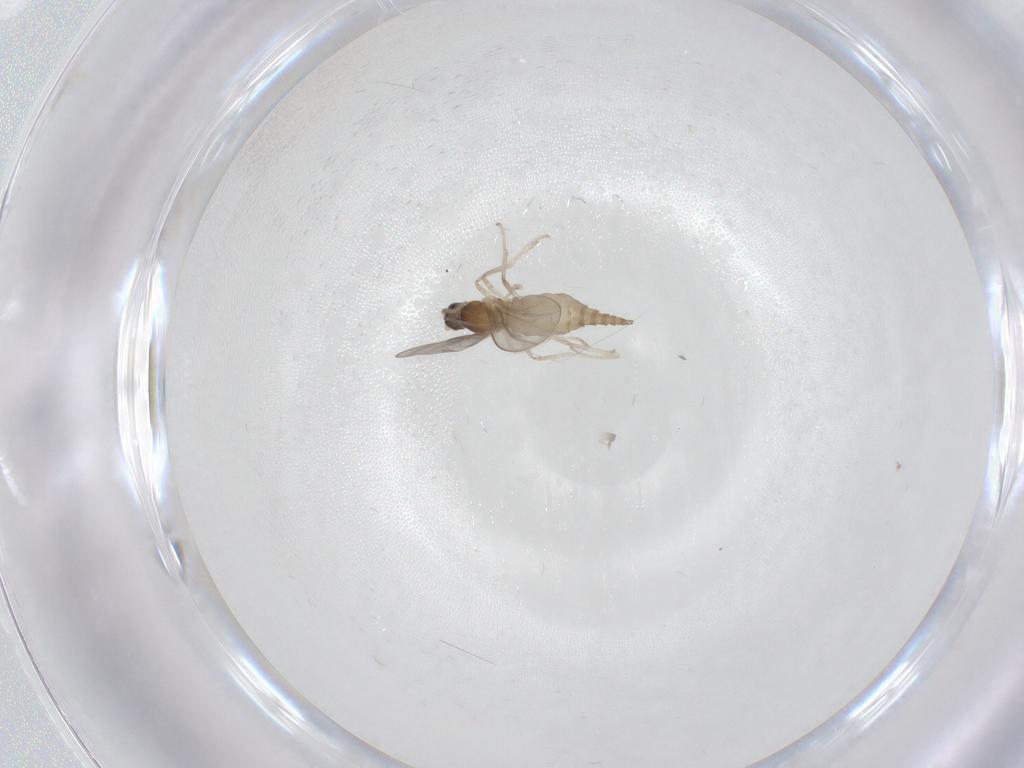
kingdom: Animalia
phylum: Arthropoda
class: Insecta
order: Diptera
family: Cecidomyiidae
